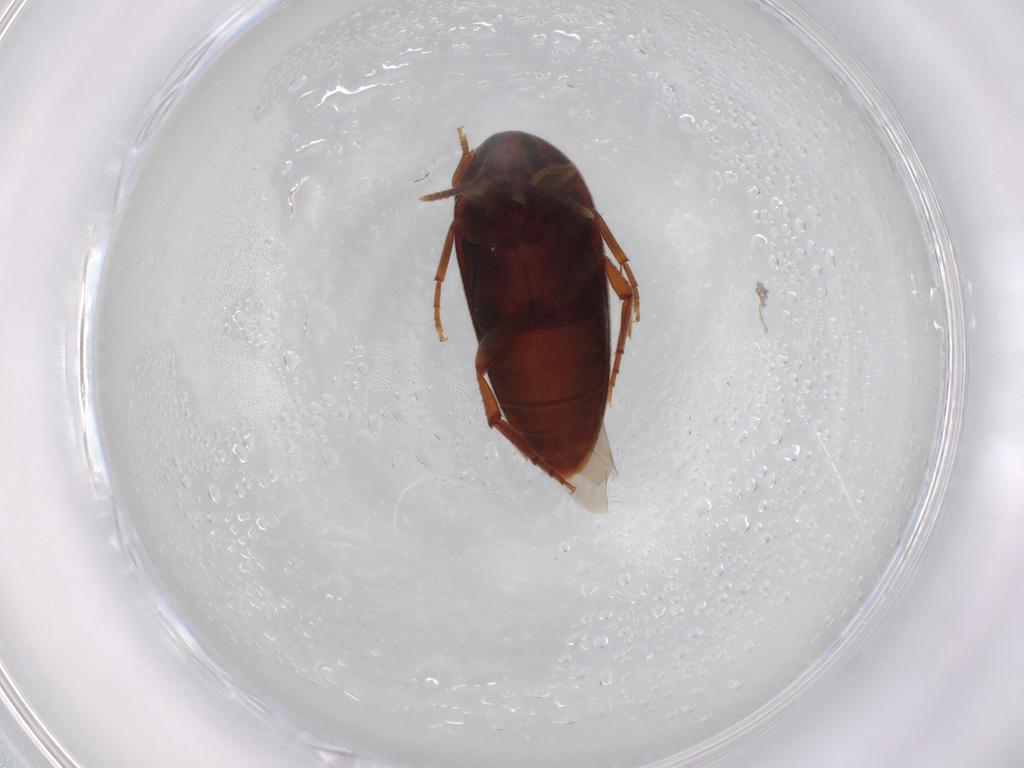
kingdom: Animalia
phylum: Arthropoda
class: Insecta
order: Coleoptera
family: Melandryidae
